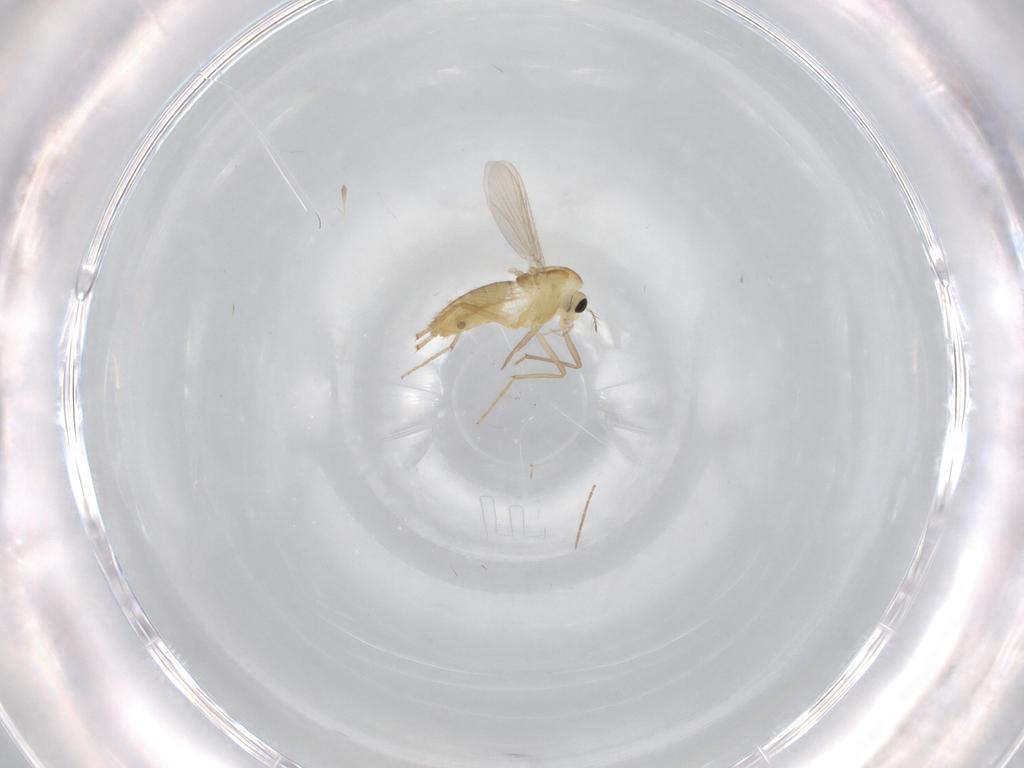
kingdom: Animalia
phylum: Arthropoda
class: Insecta
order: Diptera
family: Chironomidae
